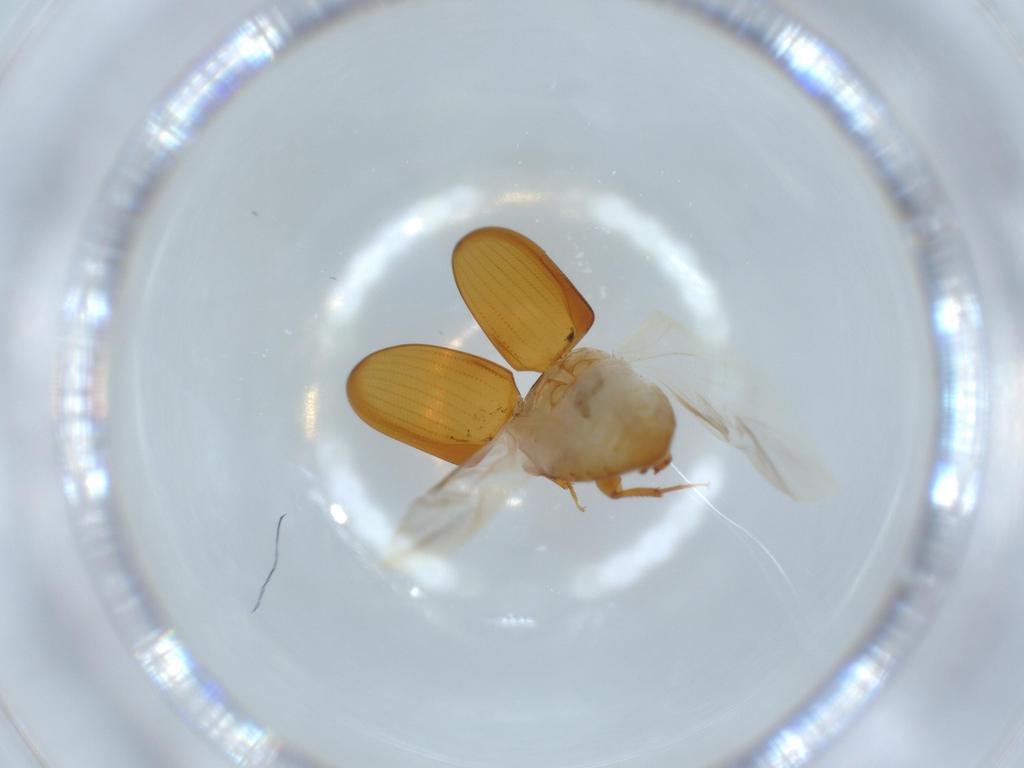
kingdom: Animalia
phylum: Arthropoda
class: Insecta
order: Coleoptera
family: Phalacridae
